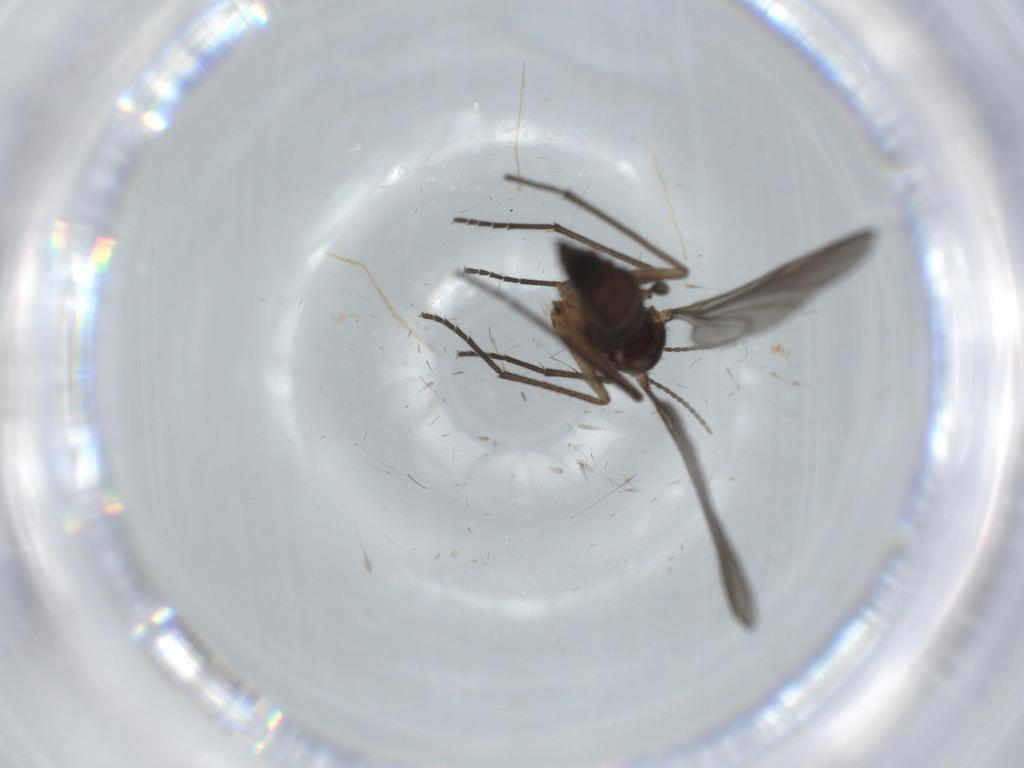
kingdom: Animalia
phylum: Arthropoda
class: Insecta
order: Diptera
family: Sciaridae
